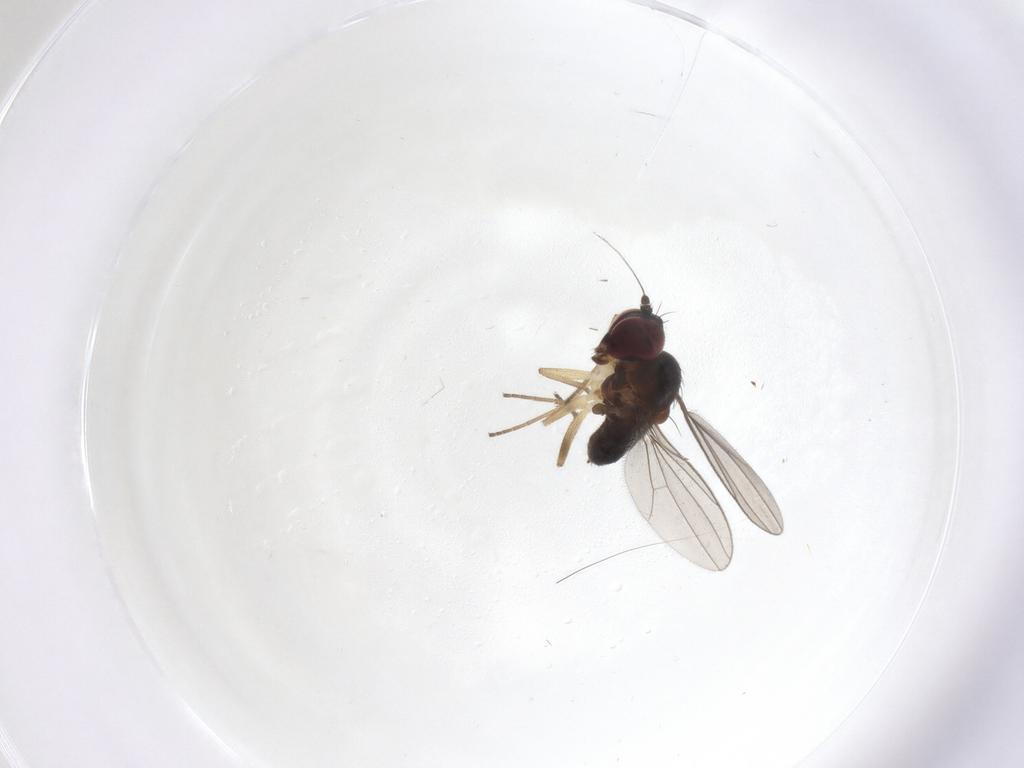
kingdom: Animalia
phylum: Arthropoda
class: Insecta
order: Diptera
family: Dolichopodidae
